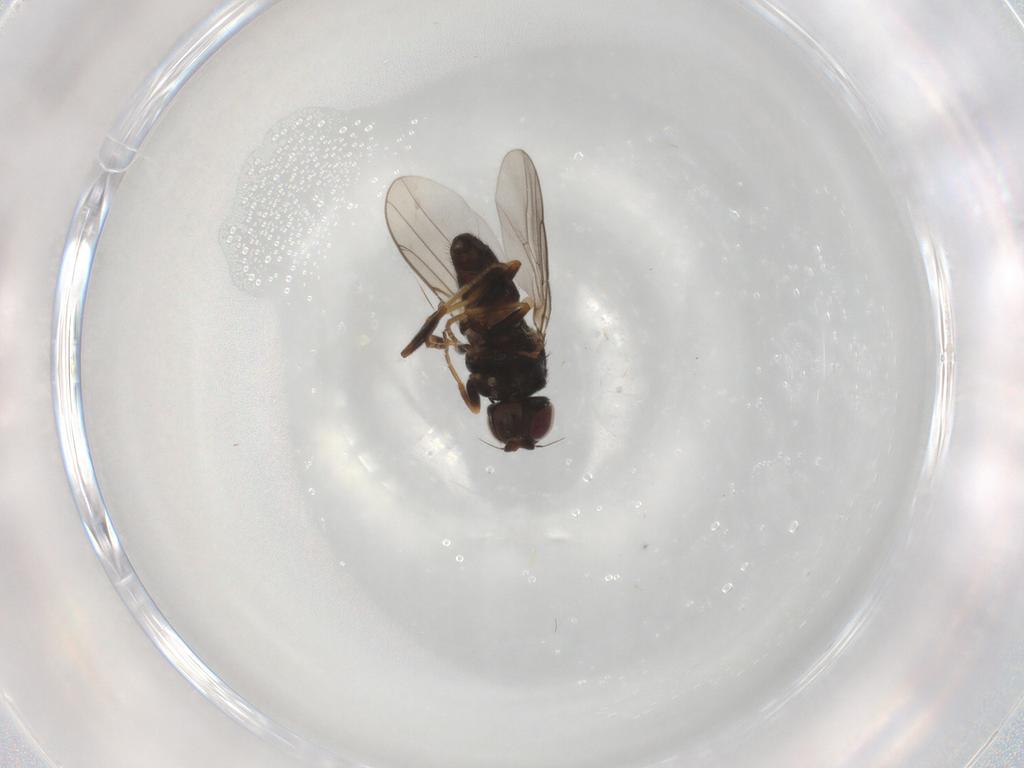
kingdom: Animalia
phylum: Arthropoda
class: Insecta
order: Diptera
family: Chloropidae
